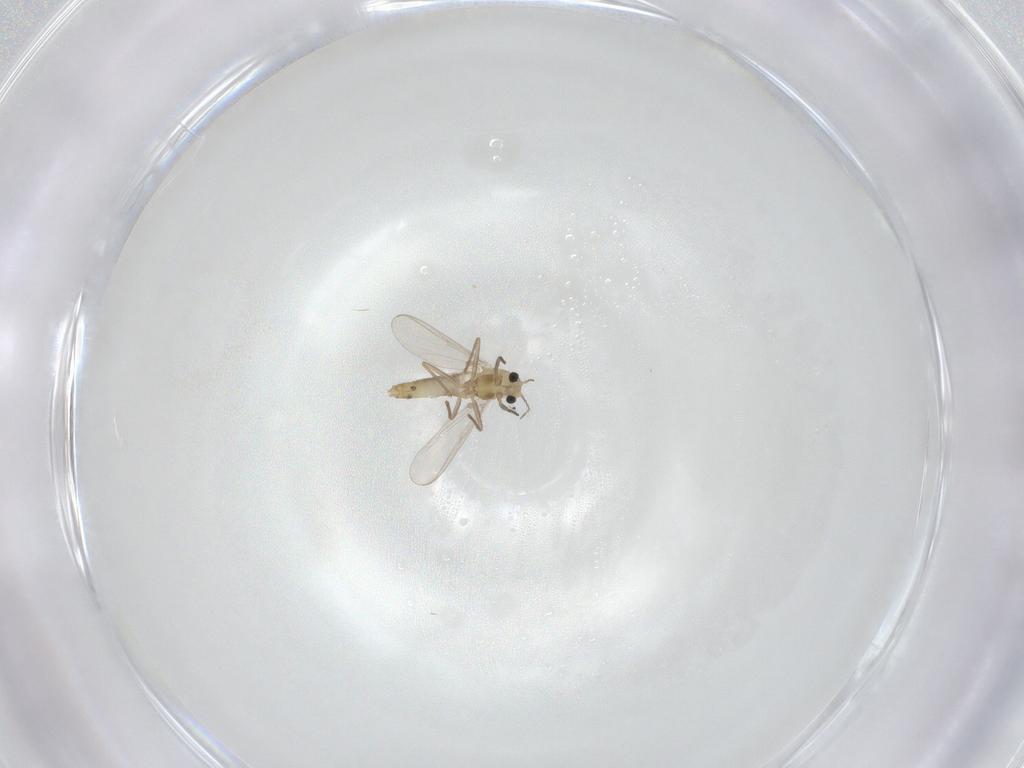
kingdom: Animalia
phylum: Arthropoda
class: Insecta
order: Diptera
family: Chironomidae
